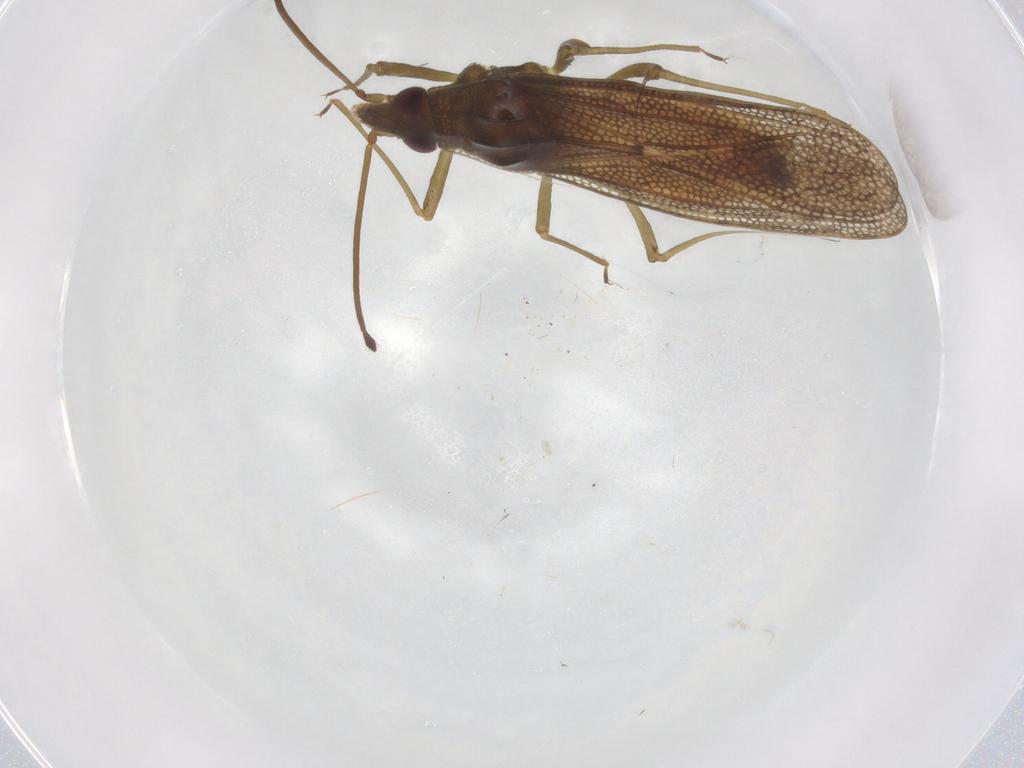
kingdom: Animalia
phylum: Arthropoda
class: Insecta
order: Hemiptera
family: Tingidae
